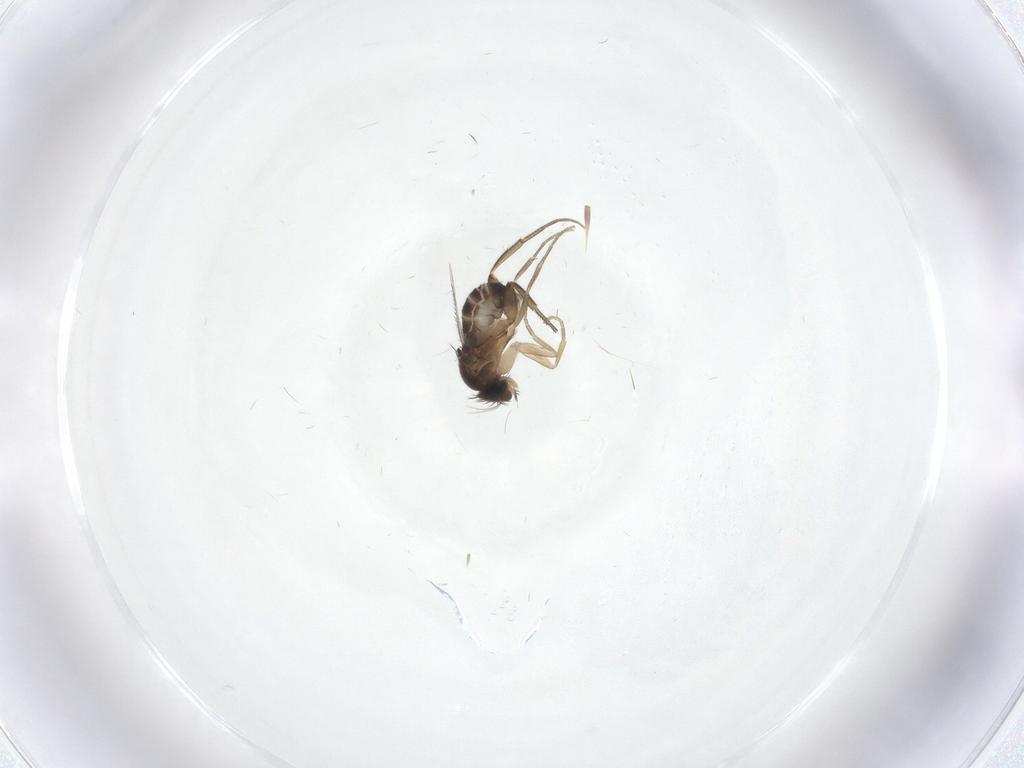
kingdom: Animalia
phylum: Arthropoda
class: Insecta
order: Diptera
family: Phoridae
